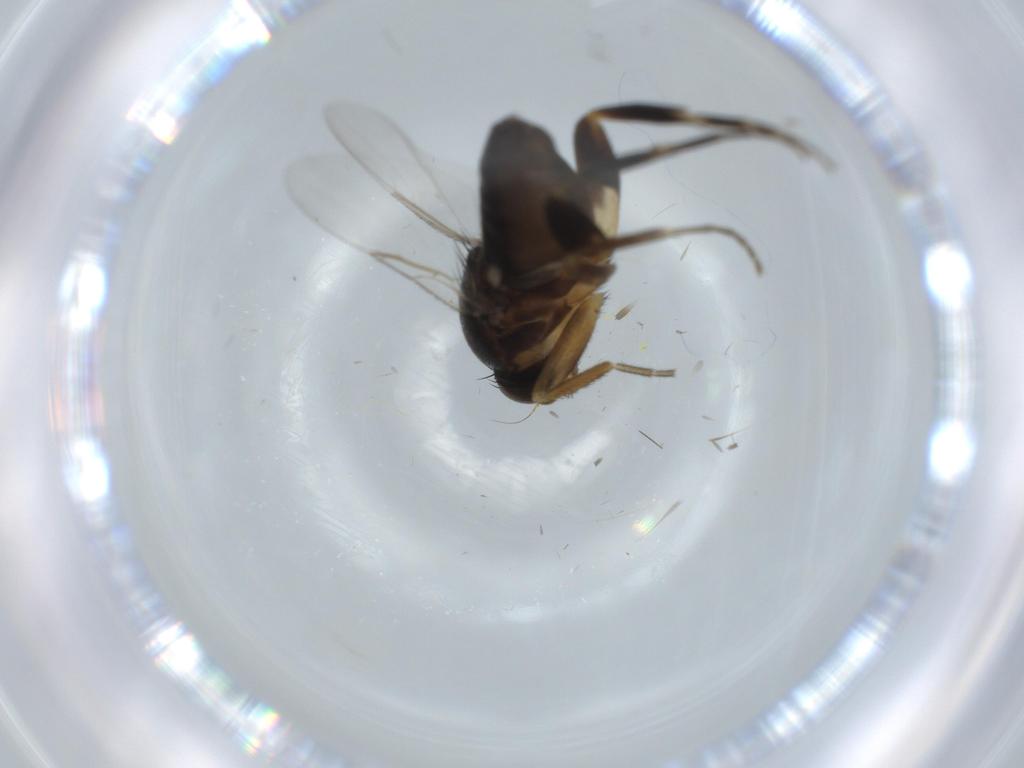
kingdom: Animalia
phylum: Arthropoda
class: Insecta
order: Diptera
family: Phoridae
